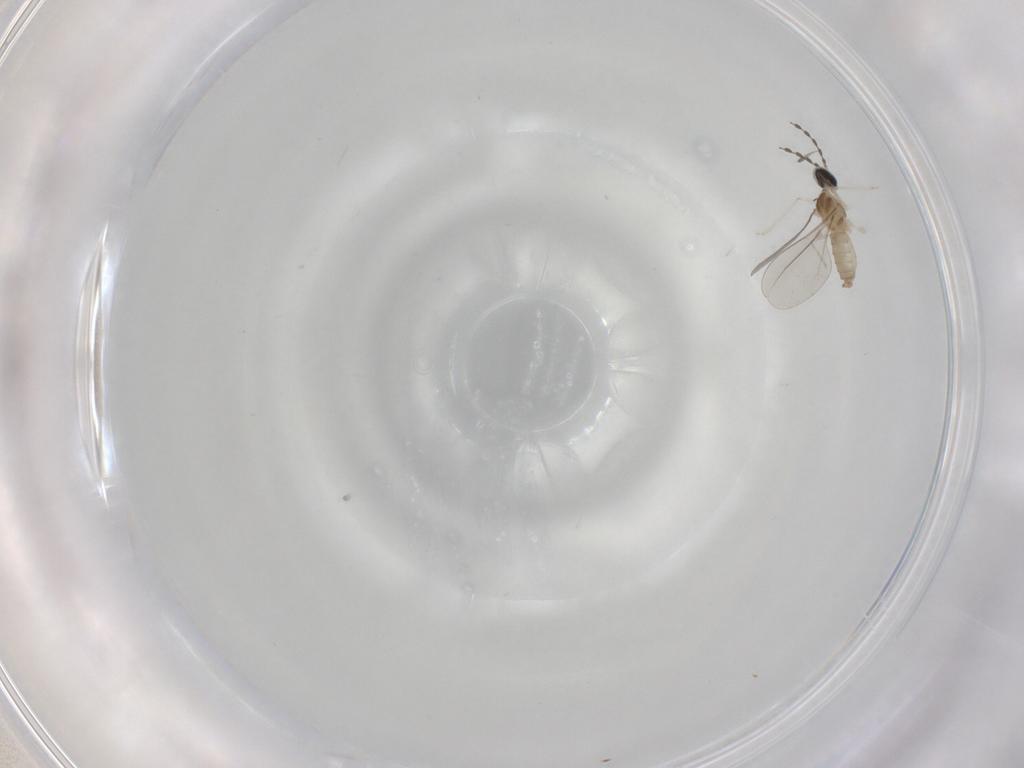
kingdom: Animalia
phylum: Arthropoda
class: Insecta
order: Diptera
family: Cecidomyiidae
